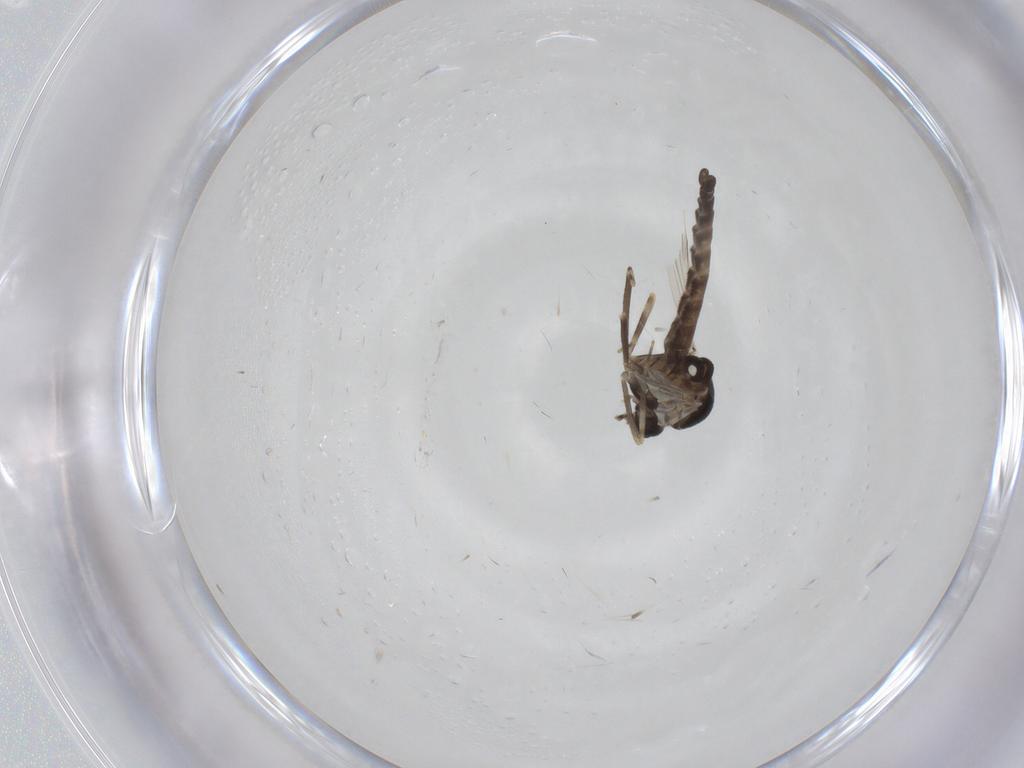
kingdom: Animalia
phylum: Arthropoda
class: Insecta
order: Diptera
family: Ceratopogonidae
